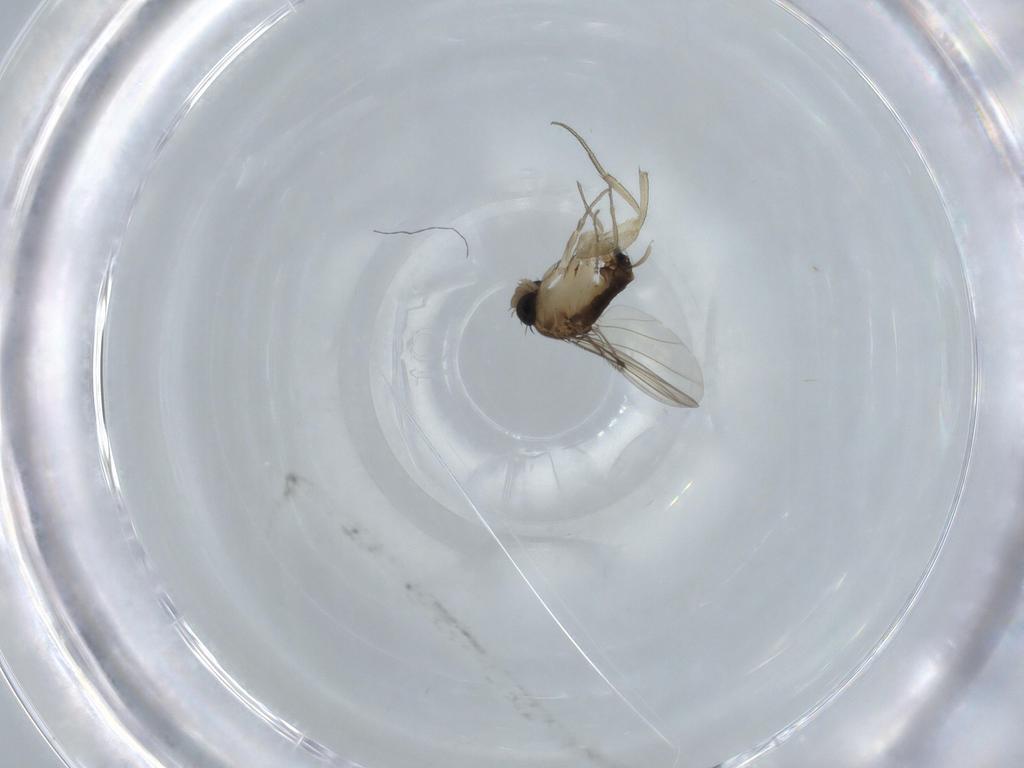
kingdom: Animalia
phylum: Arthropoda
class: Insecta
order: Diptera
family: Phoridae
